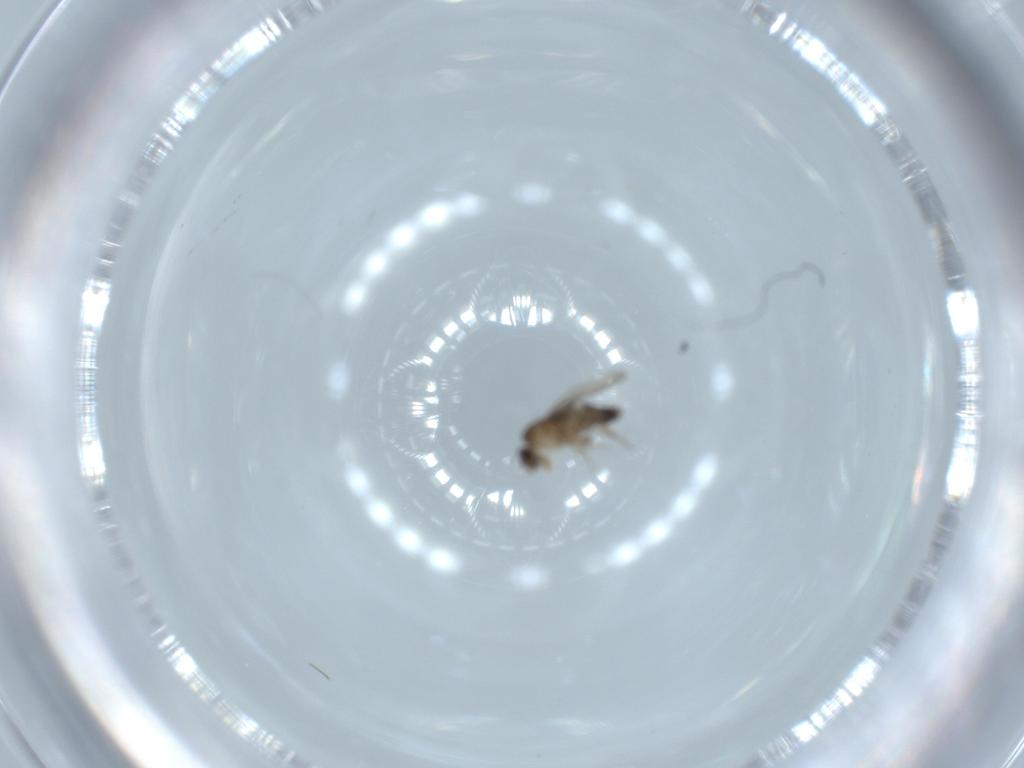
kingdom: Animalia
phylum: Arthropoda
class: Insecta
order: Diptera
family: Phoridae
